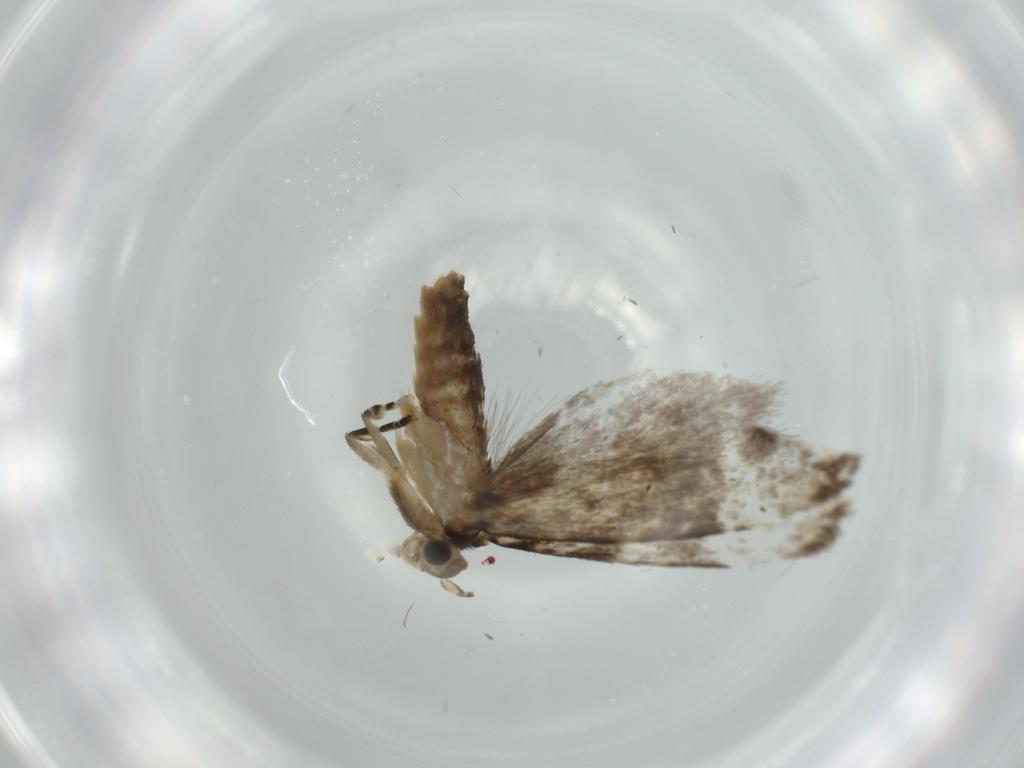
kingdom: Animalia
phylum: Arthropoda
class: Insecta
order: Lepidoptera
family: Tineidae
